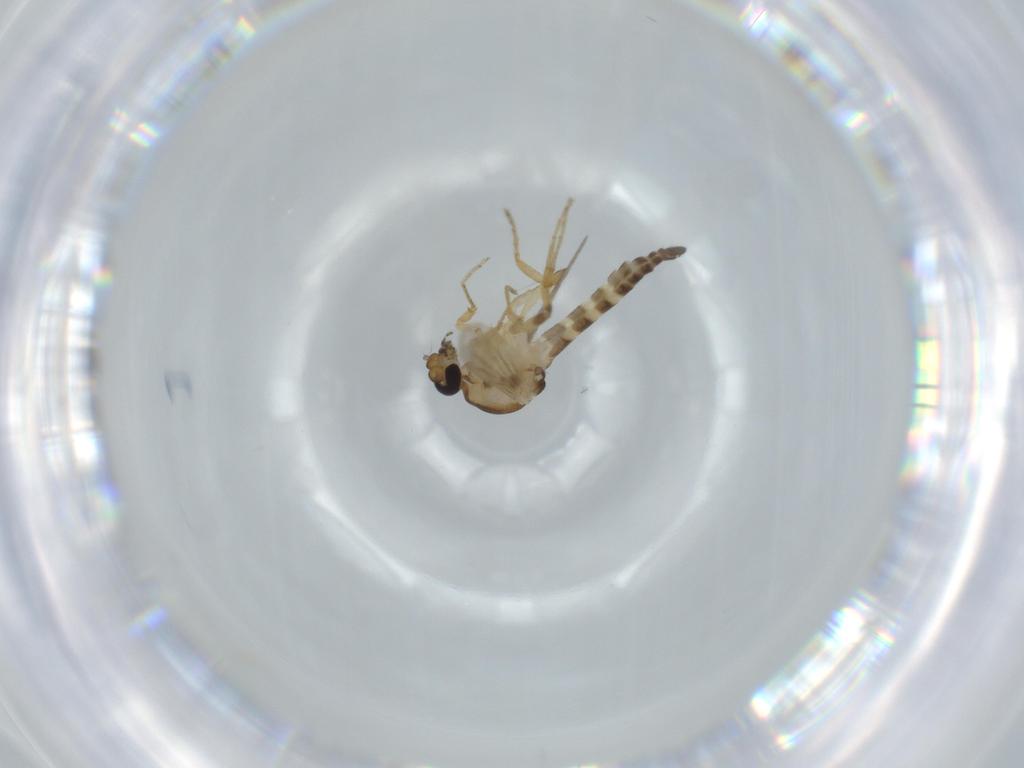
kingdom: Animalia
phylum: Arthropoda
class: Insecta
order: Diptera
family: Ceratopogonidae
